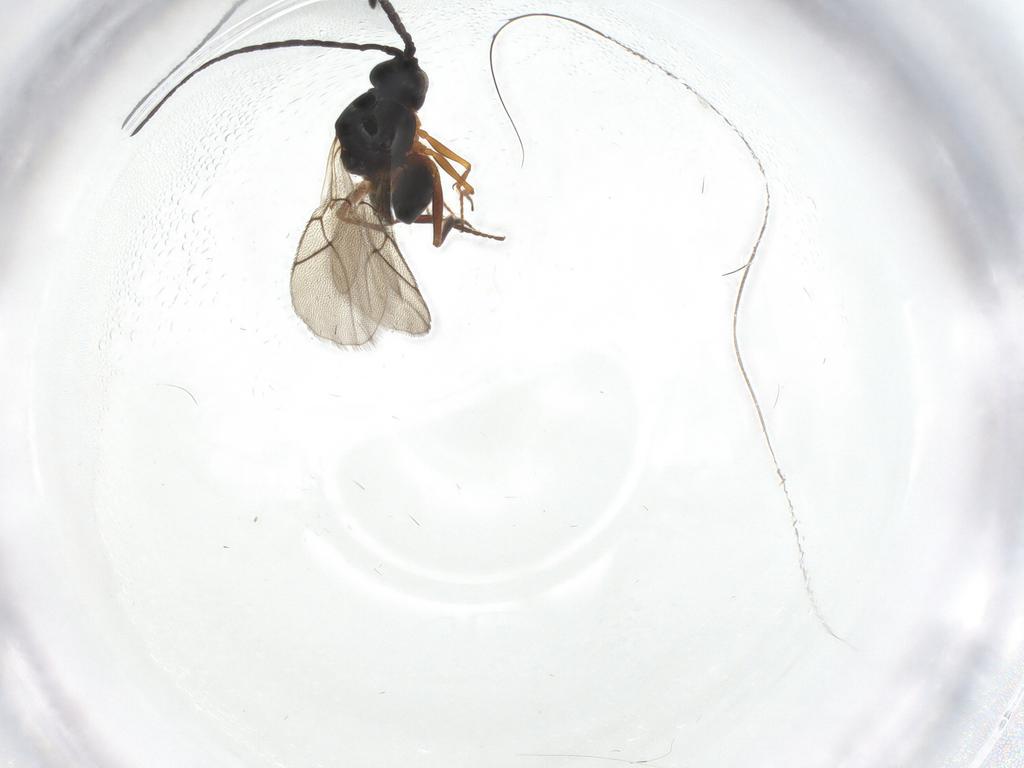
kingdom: Animalia
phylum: Arthropoda
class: Insecta
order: Hymenoptera
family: Figitidae
